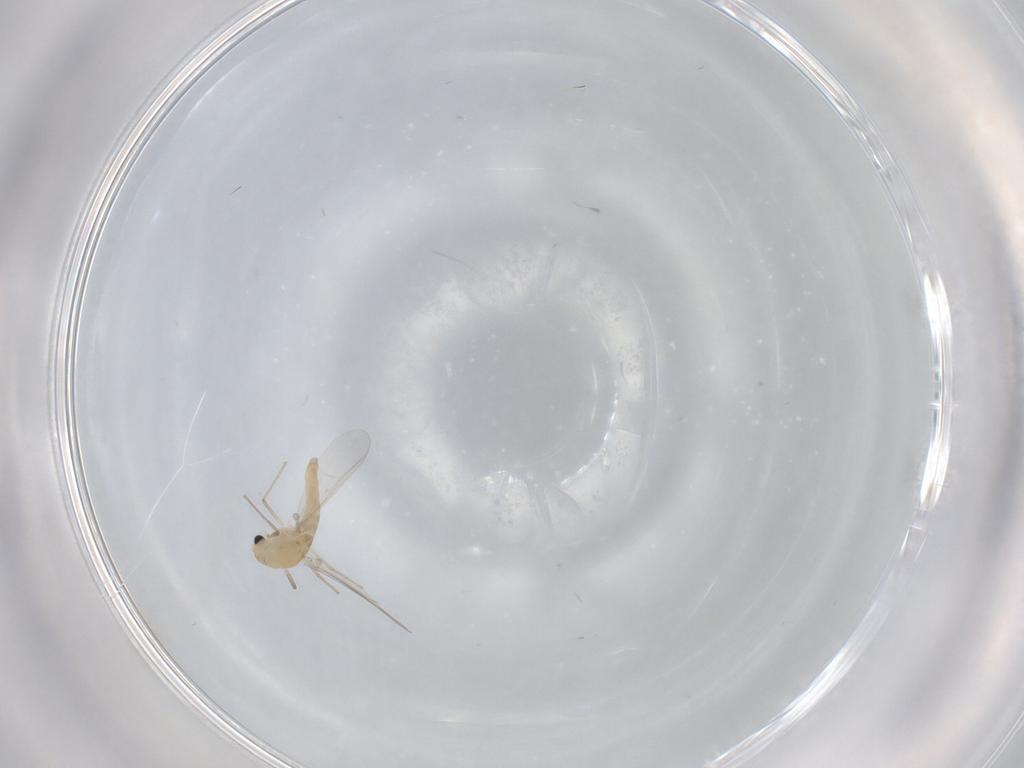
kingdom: Animalia
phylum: Arthropoda
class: Insecta
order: Diptera
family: Chironomidae
